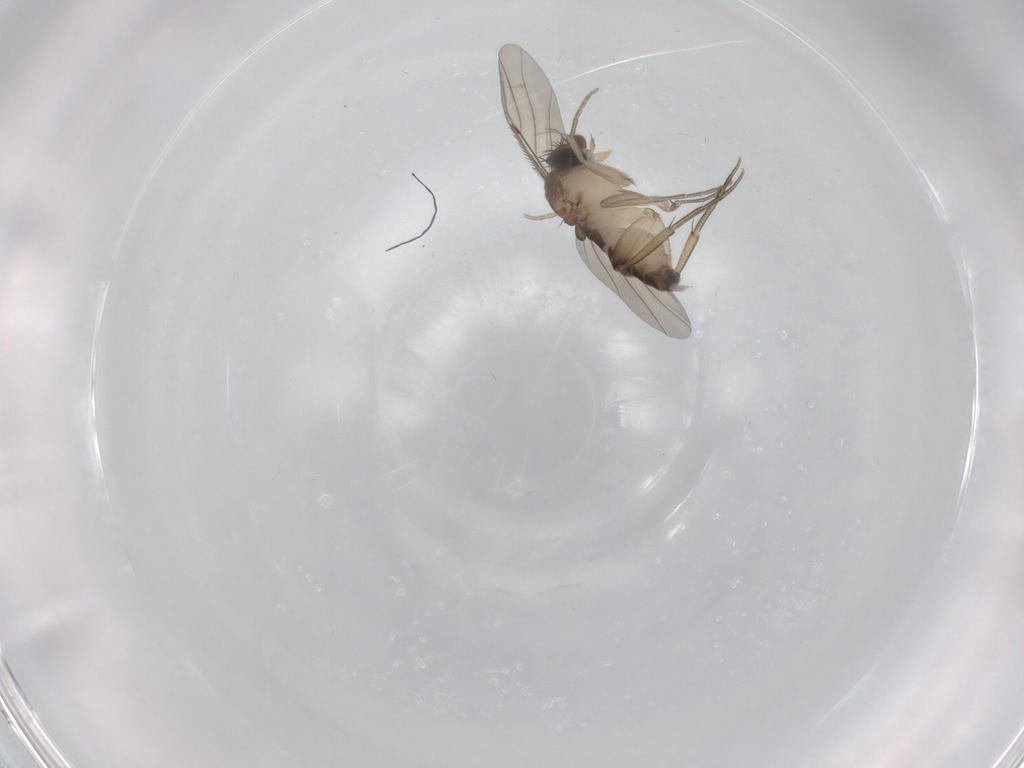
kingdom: Animalia
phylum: Arthropoda
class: Insecta
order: Diptera
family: Phoridae
